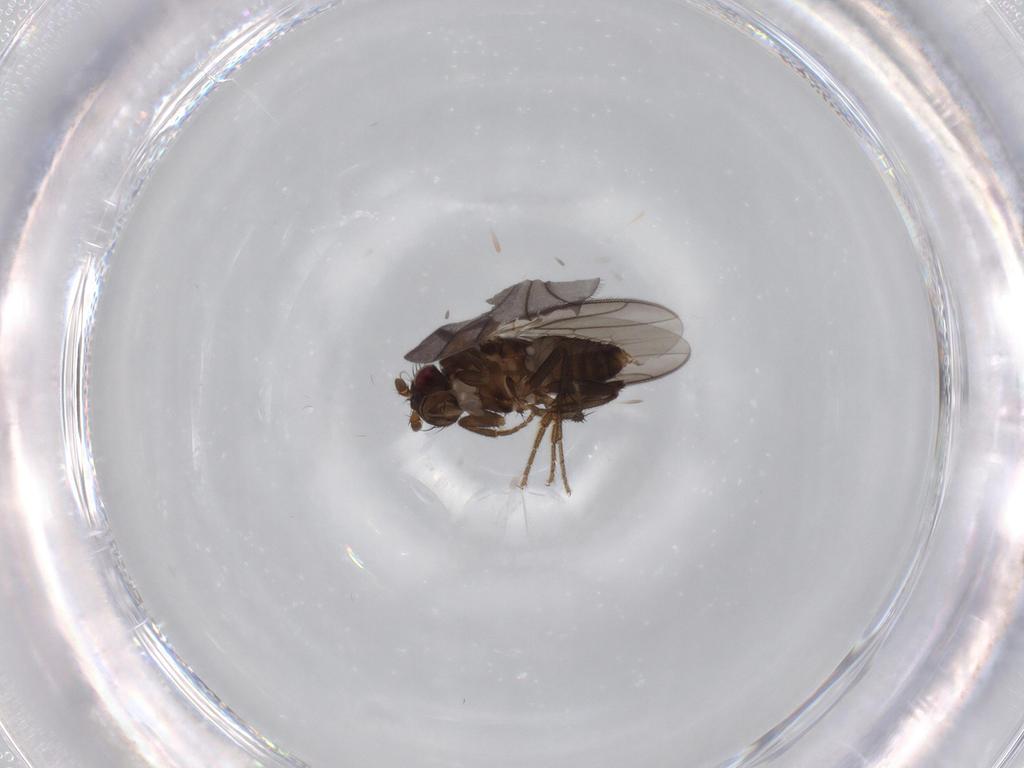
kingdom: Animalia
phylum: Arthropoda
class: Insecta
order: Diptera
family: Sphaeroceridae
